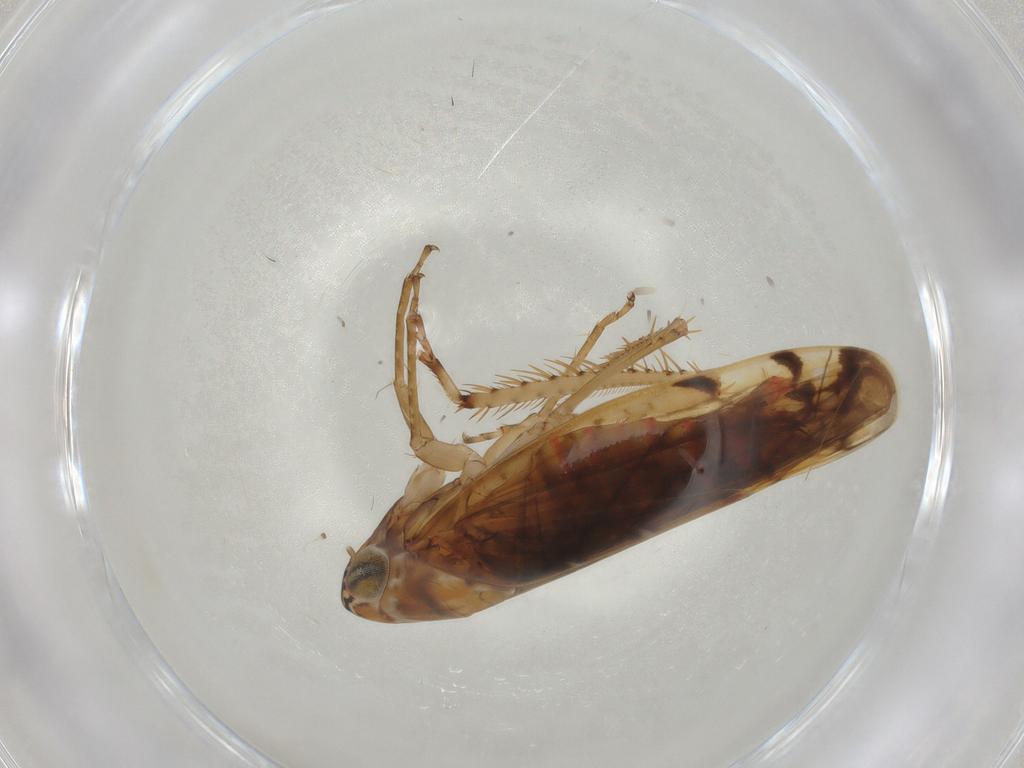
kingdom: Animalia
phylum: Arthropoda
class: Insecta
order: Hemiptera
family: Cicadellidae
